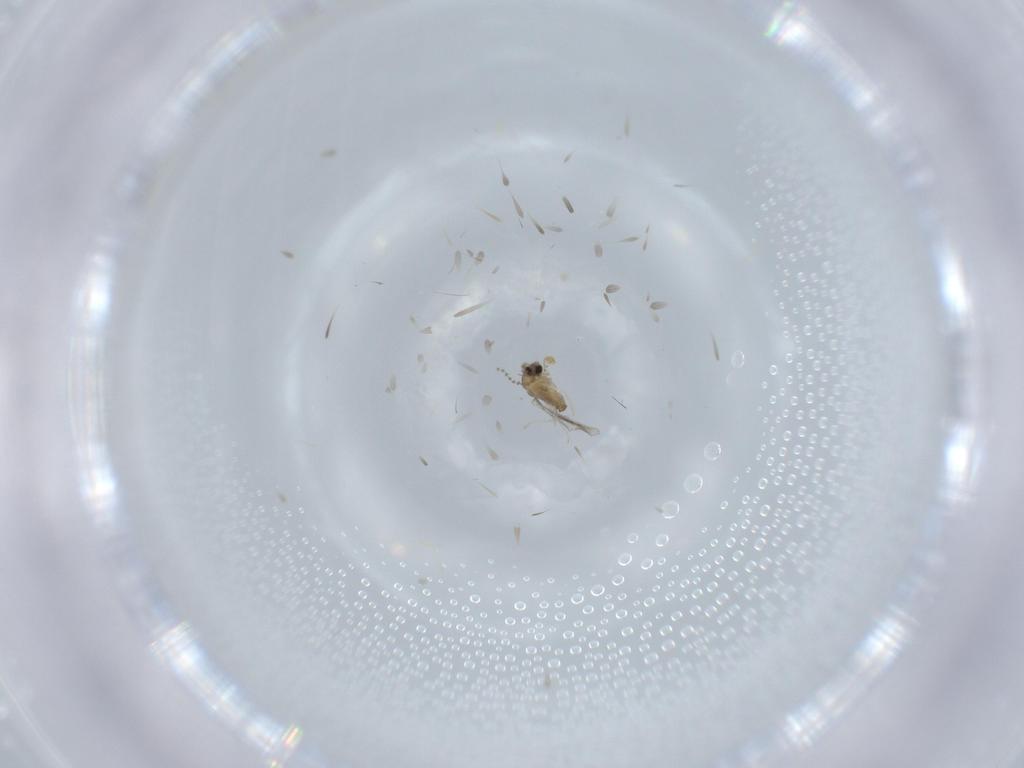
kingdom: Animalia
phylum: Arthropoda
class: Insecta
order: Diptera
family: Cecidomyiidae
